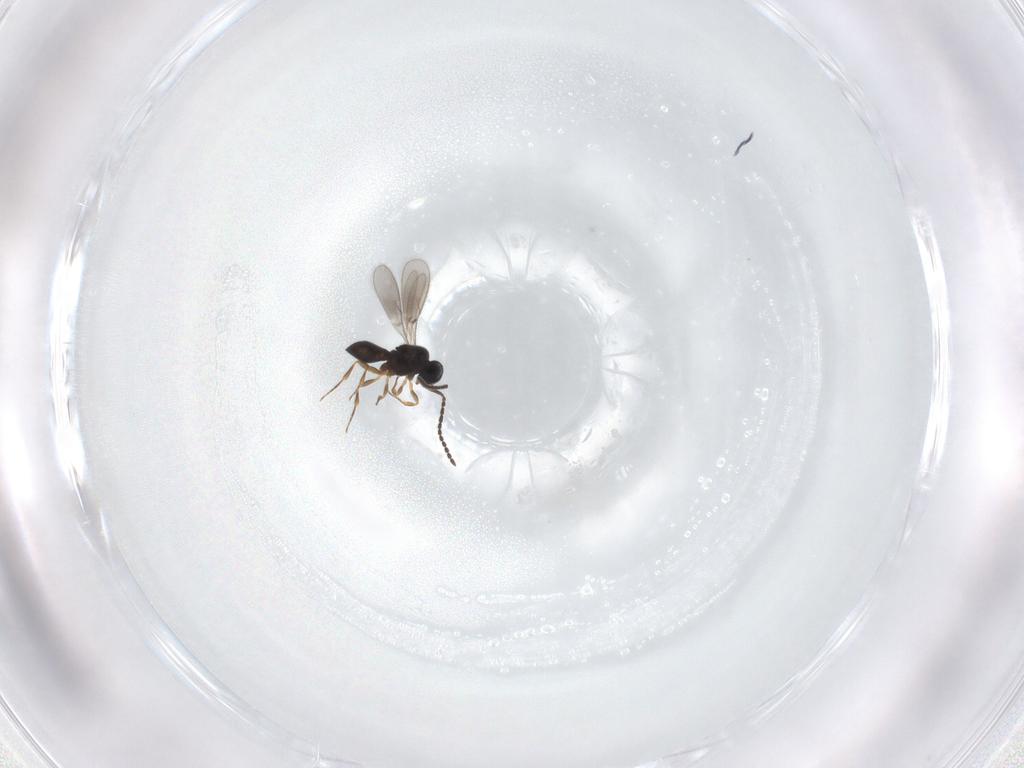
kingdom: Animalia
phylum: Arthropoda
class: Insecta
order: Hymenoptera
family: Scelionidae
